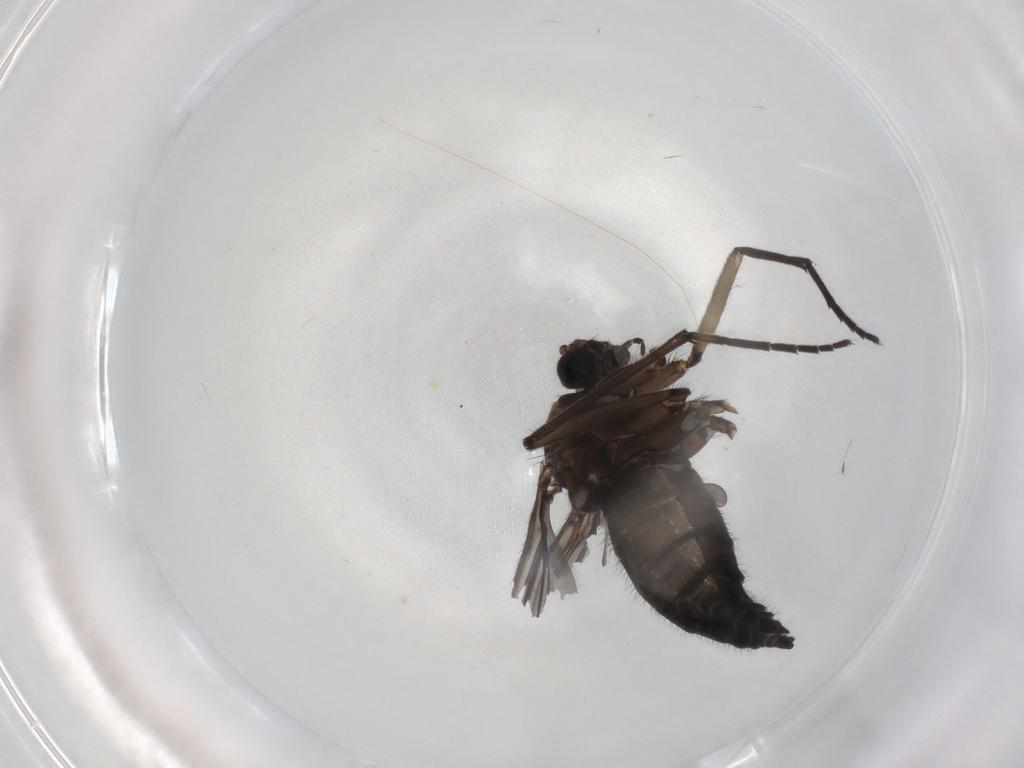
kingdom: Animalia
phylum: Arthropoda
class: Insecta
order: Diptera
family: Sciaridae
